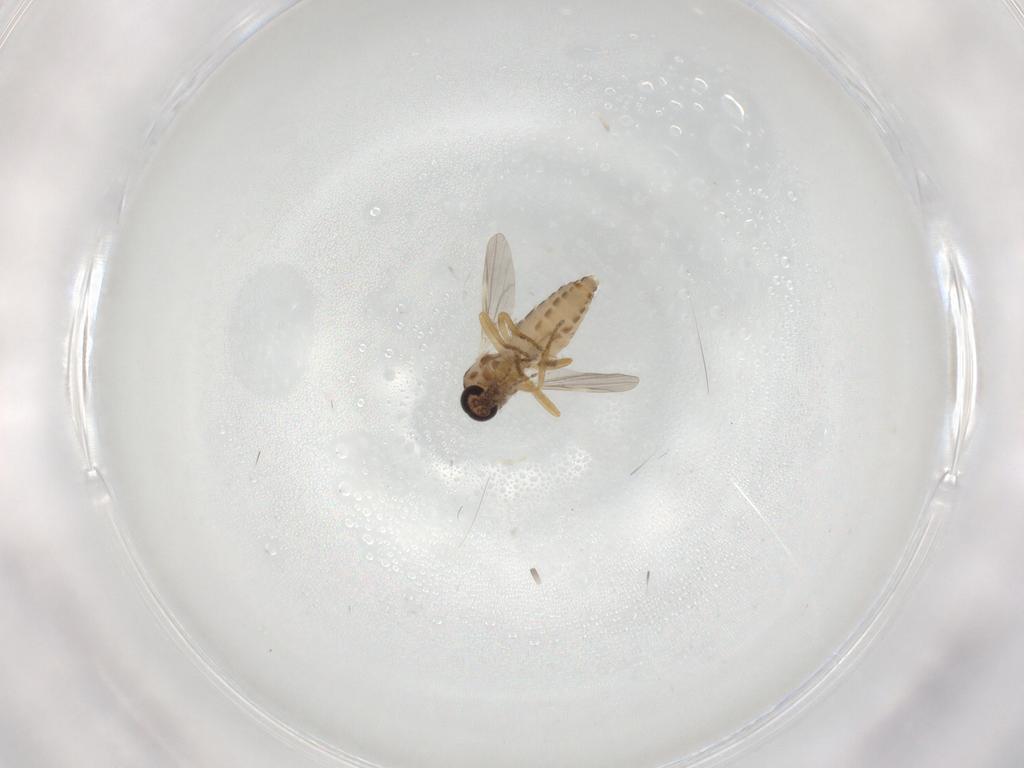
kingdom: Animalia
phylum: Arthropoda
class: Insecta
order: Diptera
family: Ceratopogonidae
